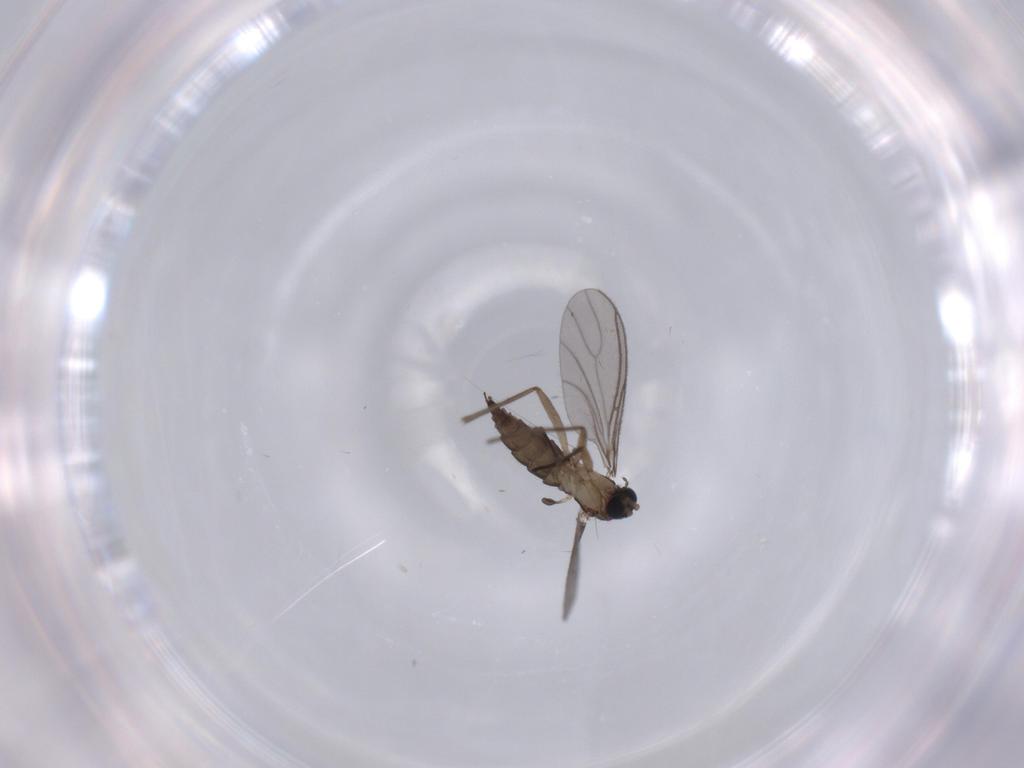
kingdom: Animalia
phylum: Arthropoda
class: Insecta
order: Diptera
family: Sciaridae
